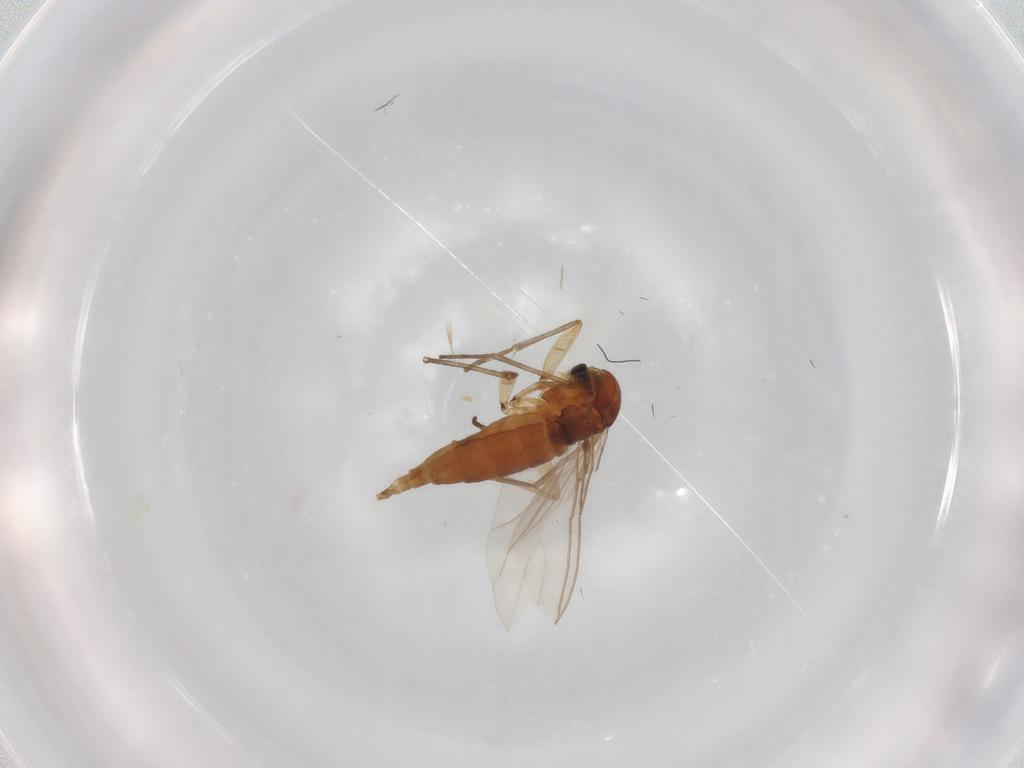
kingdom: Animalia
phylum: Arthropoda
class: Insecta
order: Diptera
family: Sciaridae
